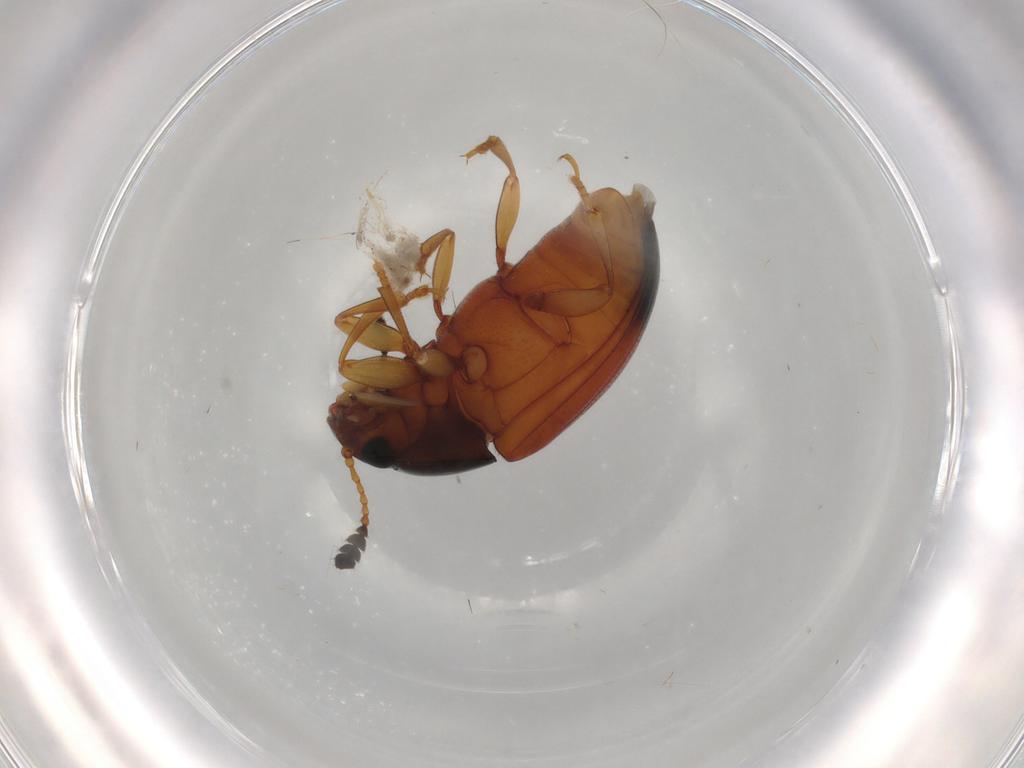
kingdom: Animalia
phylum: Arthropoda
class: Insecta
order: Coleoptera
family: Erotylidae
